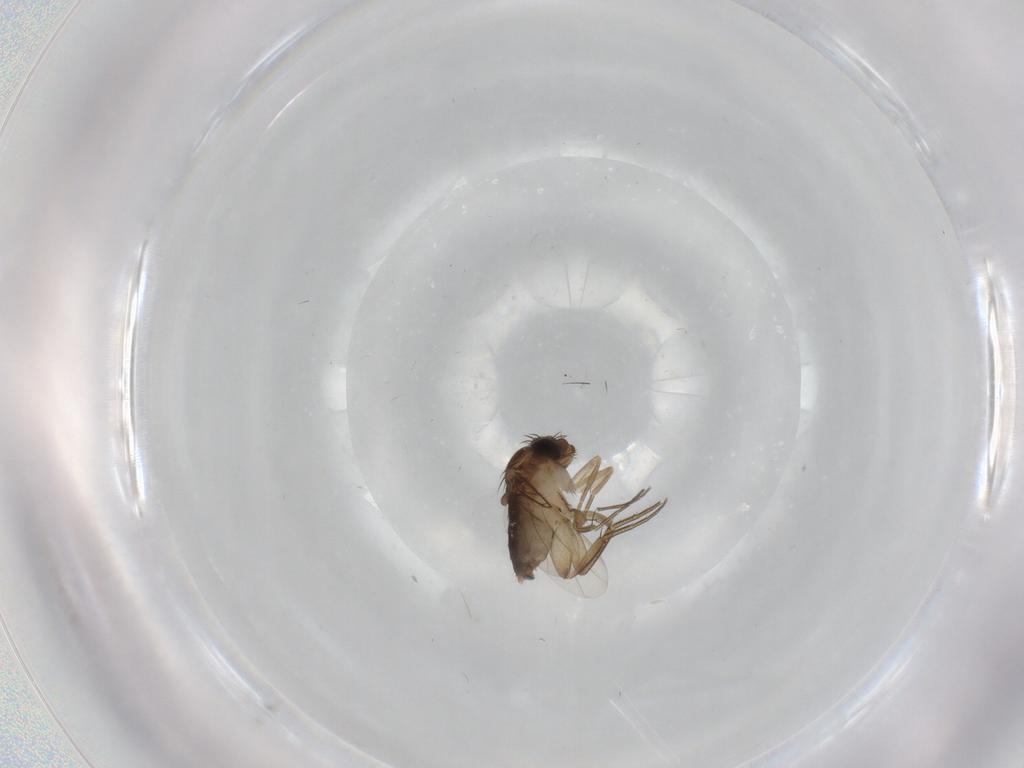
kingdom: Animalia
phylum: Arthropoda
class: Insecta
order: Diptera
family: Phoridae
